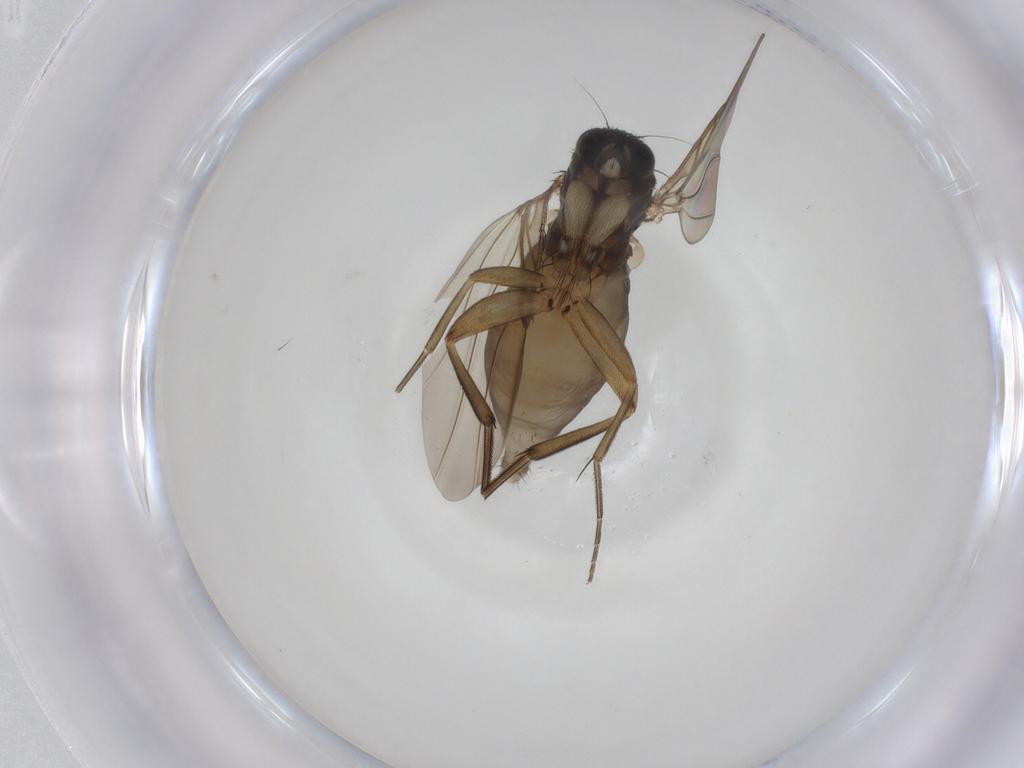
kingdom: Animalia
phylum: Arthropoda
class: Insecta
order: Diptera
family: Phoridae
